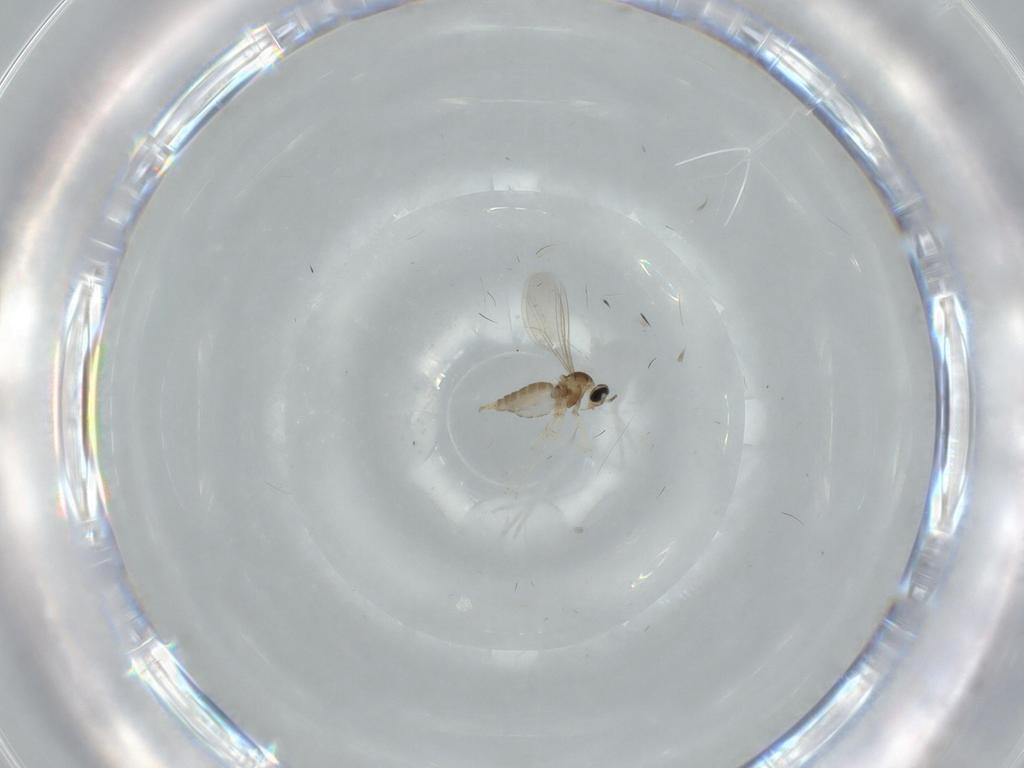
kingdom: Animalia
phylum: Arthropoda
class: Insecta
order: Diptera
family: Cecidomyiidae
